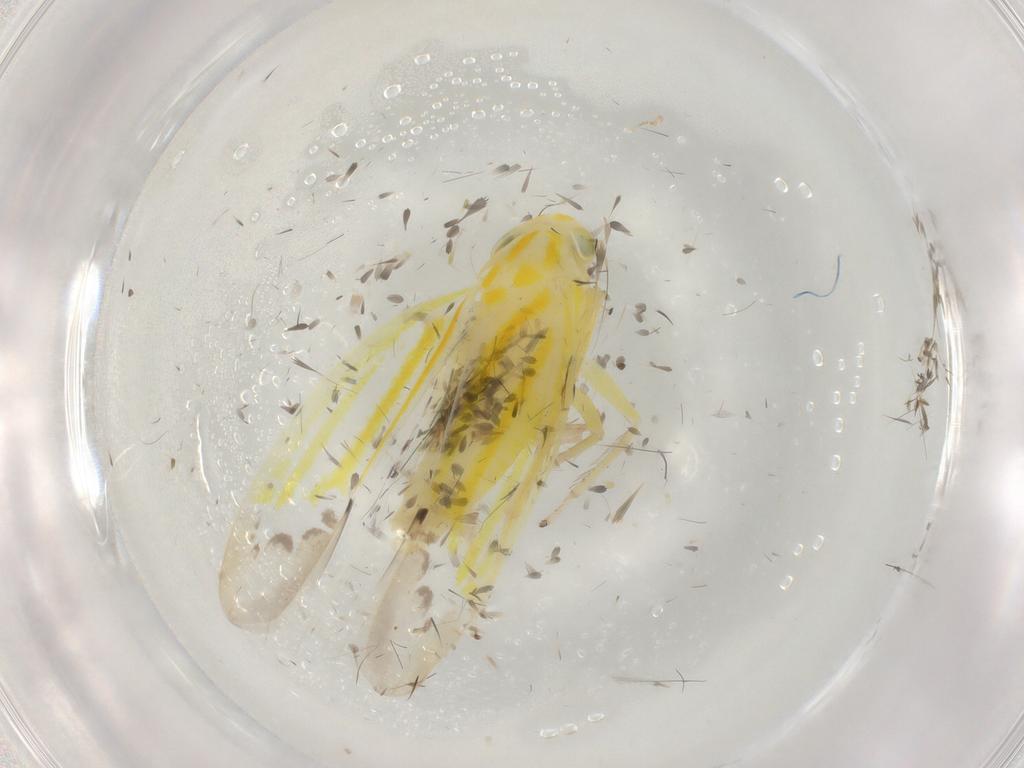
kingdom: Animalia
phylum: Arthropoda
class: Insecta
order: Hemiptera
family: Cicadellidae
